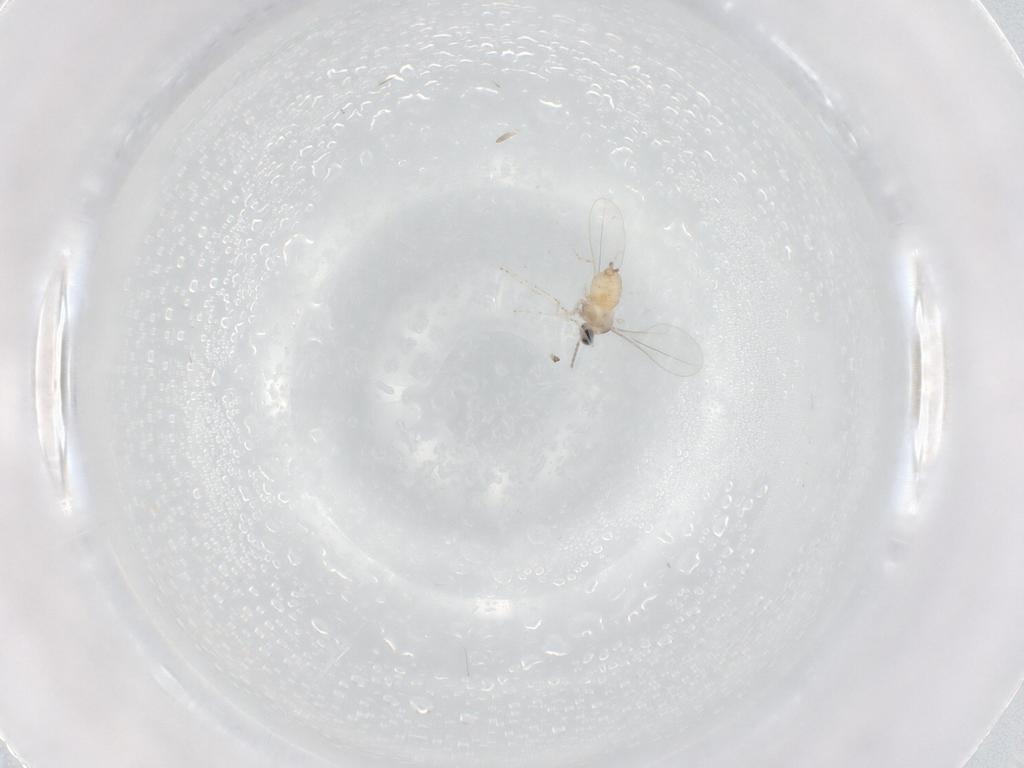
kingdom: Animalia
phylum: Arthropoda
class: Insecta
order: Diptera
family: Cecidomyiidae
